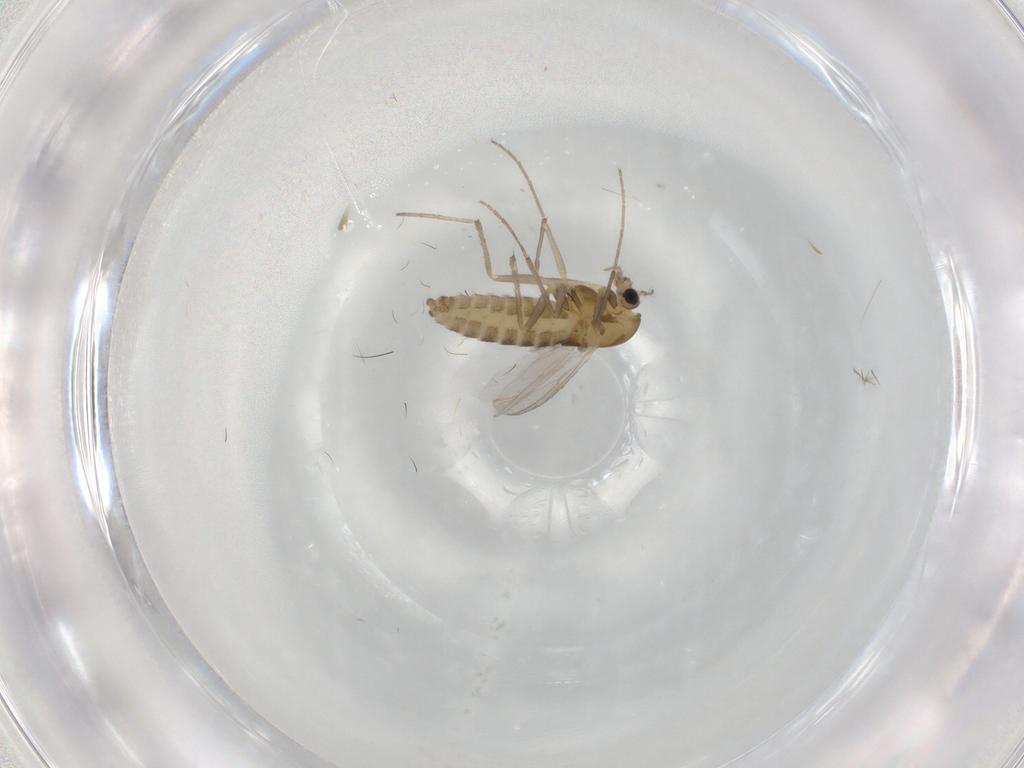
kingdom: Animalia
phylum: Arthropoda
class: Insecta
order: Diptera
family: Chironomidae
